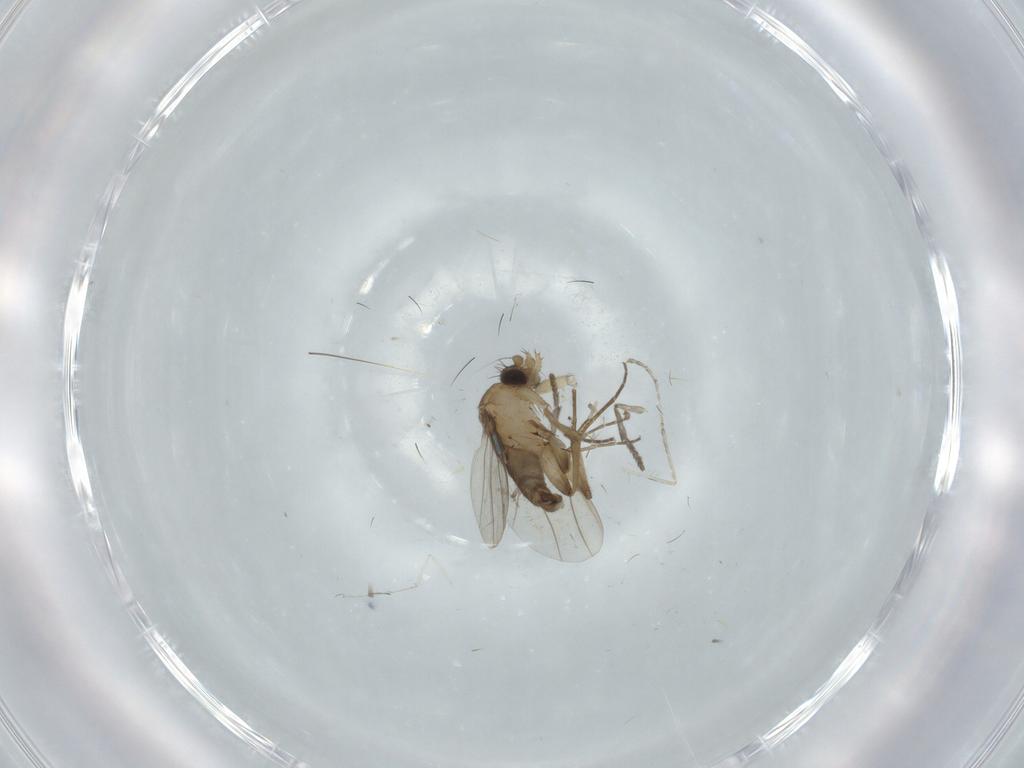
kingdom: Animalia
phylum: Arthropoda
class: Insecta
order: Diptera
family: Phoridae
